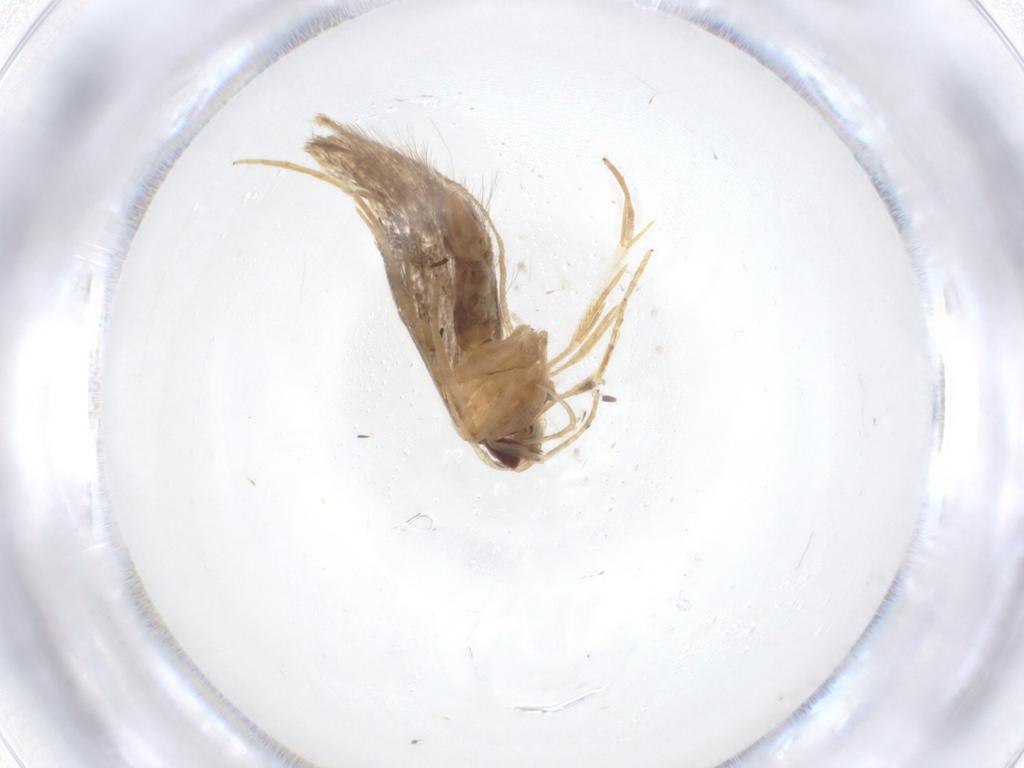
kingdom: Animalia
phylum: Arthropoda
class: Insecta
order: Lepidoptera
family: Cosmopterigidae
